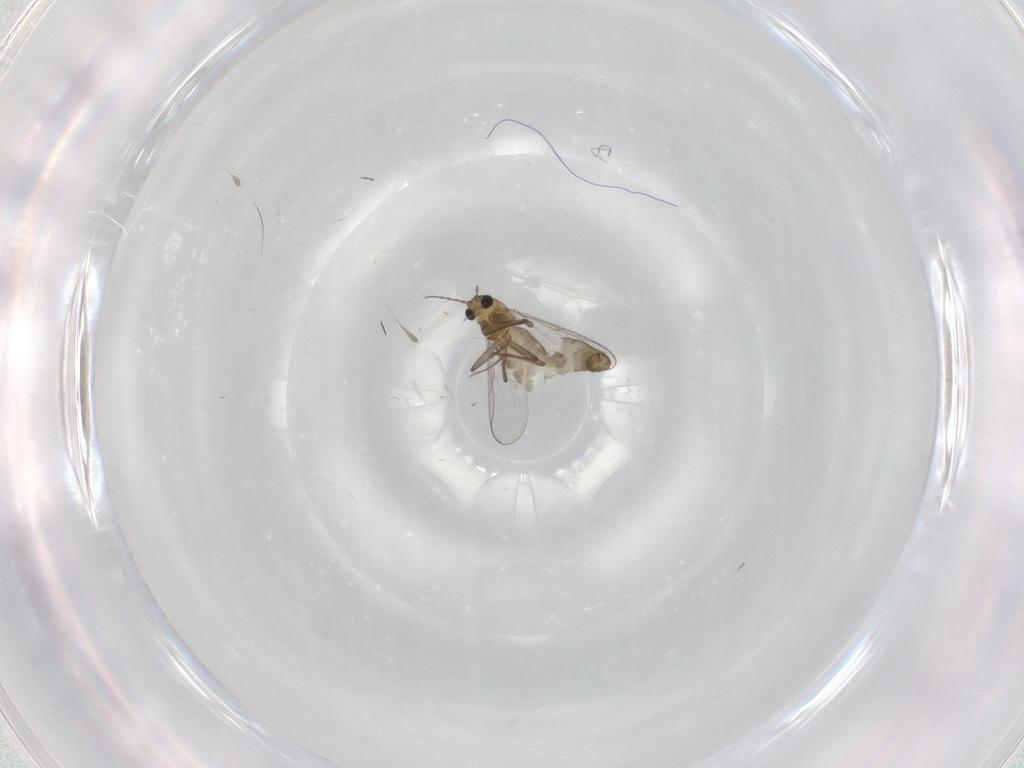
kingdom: Animalia
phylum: Arthropoda
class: Insecta
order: Diptera
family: Chironomidae
